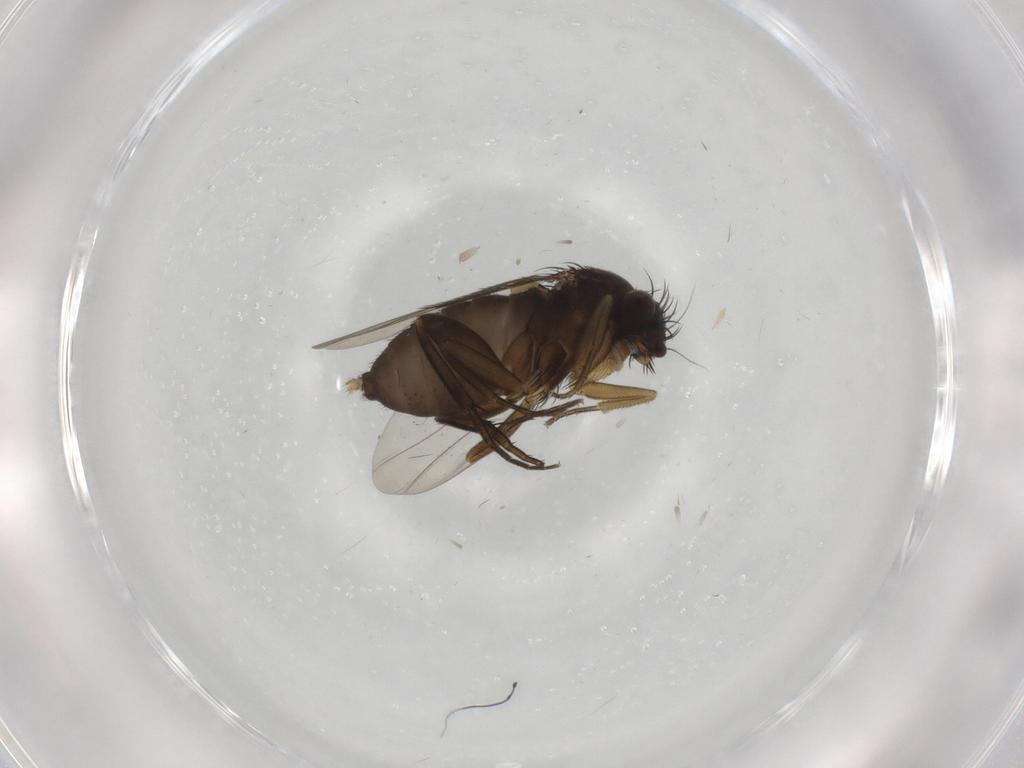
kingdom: Animalia
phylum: Arthropoda
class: Insecta
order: Diptera
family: Phoridae
